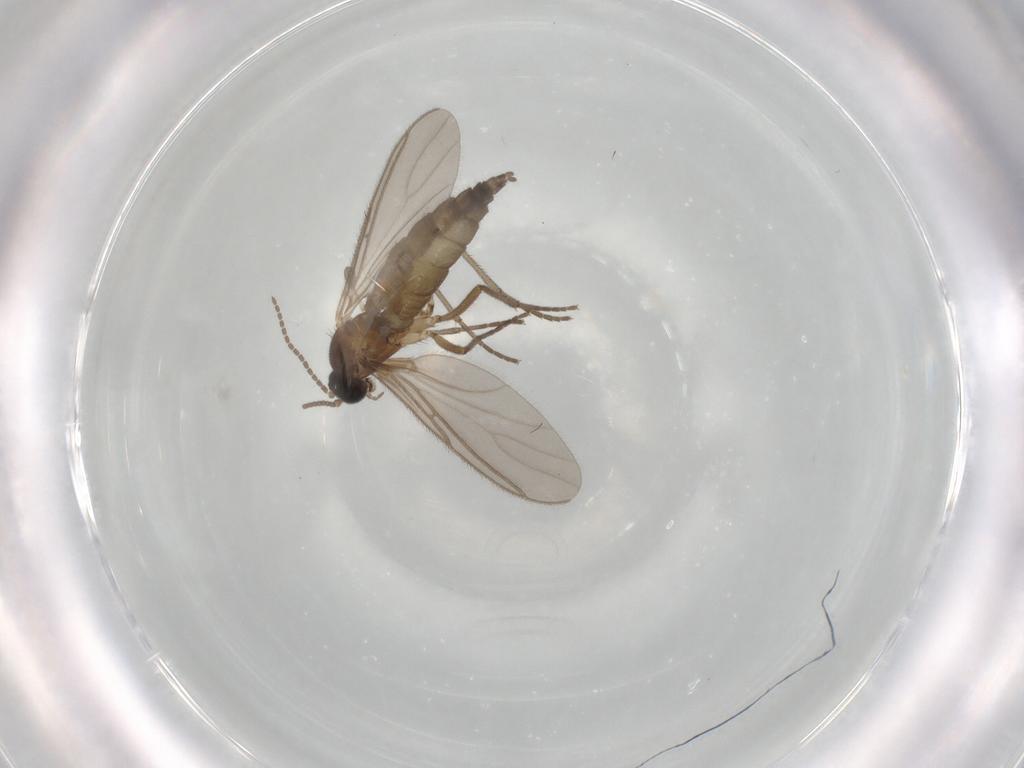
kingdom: Animalia
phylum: Arthropoda
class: Insecta
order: Diptera
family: Sciaridae
